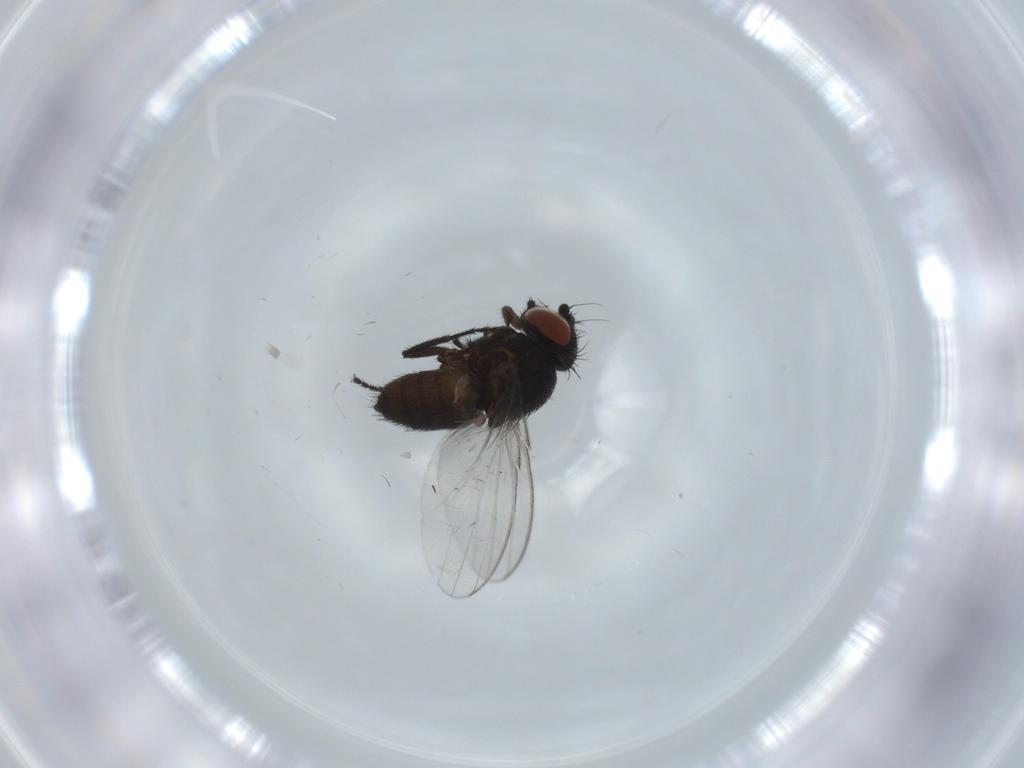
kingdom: Animalia
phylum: Arthropoda
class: Insecta
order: Diptera
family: Milichiidae
